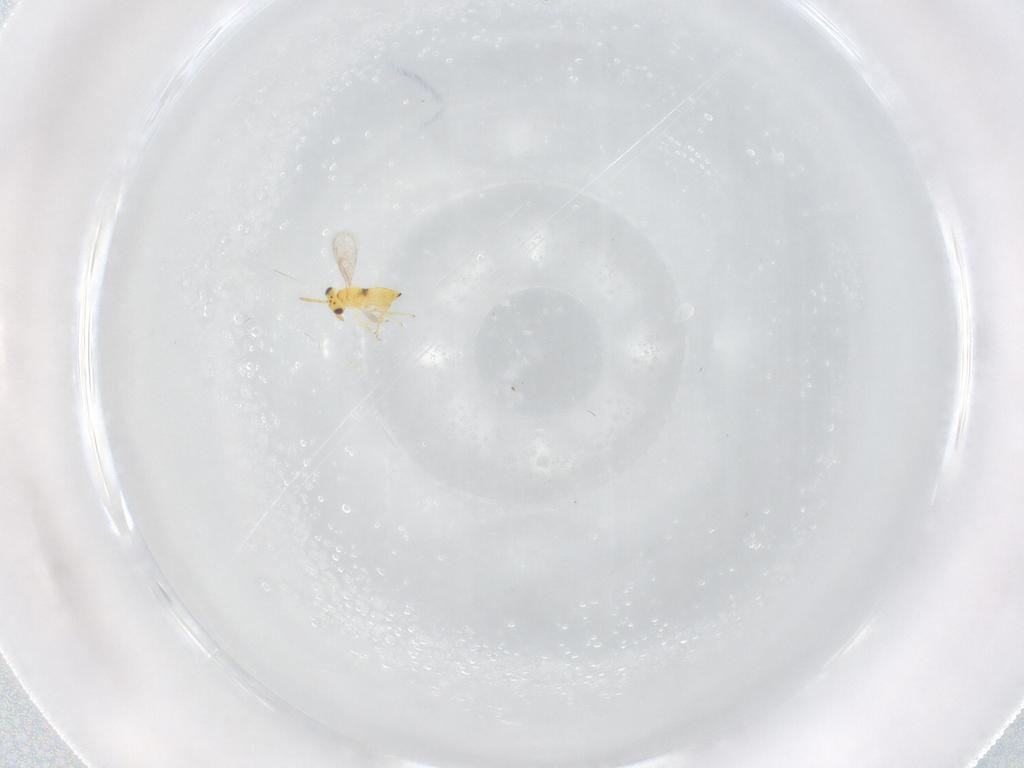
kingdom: Animalia
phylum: Arthropoda
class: Insecta
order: Hymenoptera
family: Aphelinidae
